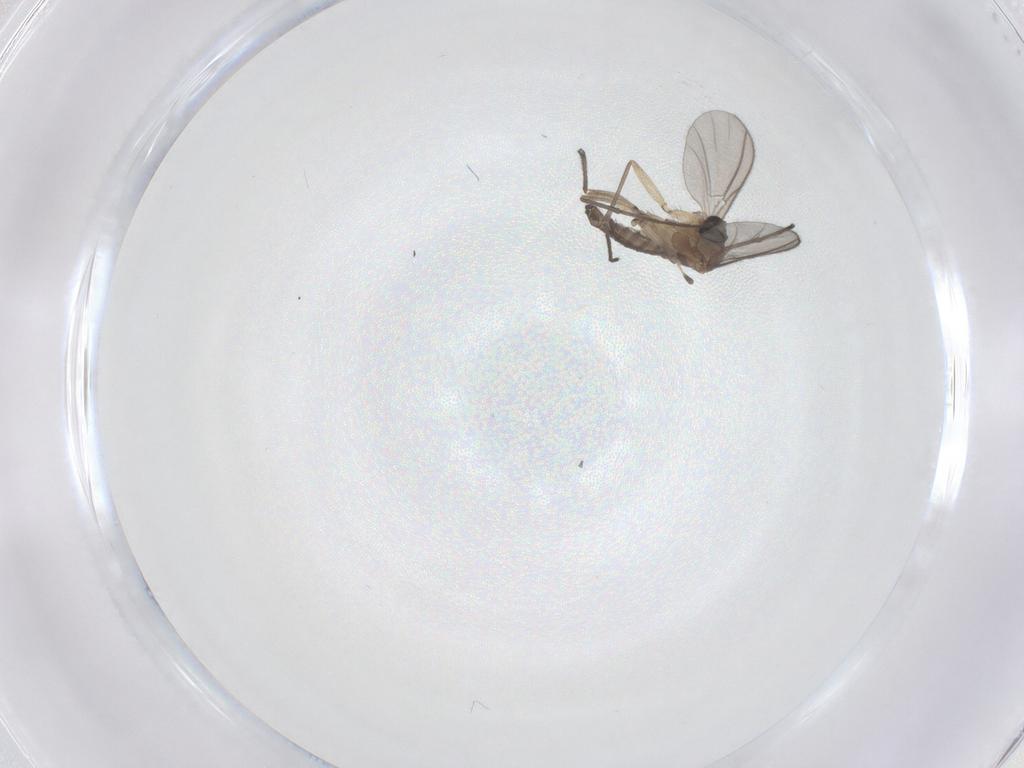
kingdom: Animalia
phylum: Arthropoda
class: Insecta
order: Diptera
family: Sciaridae
